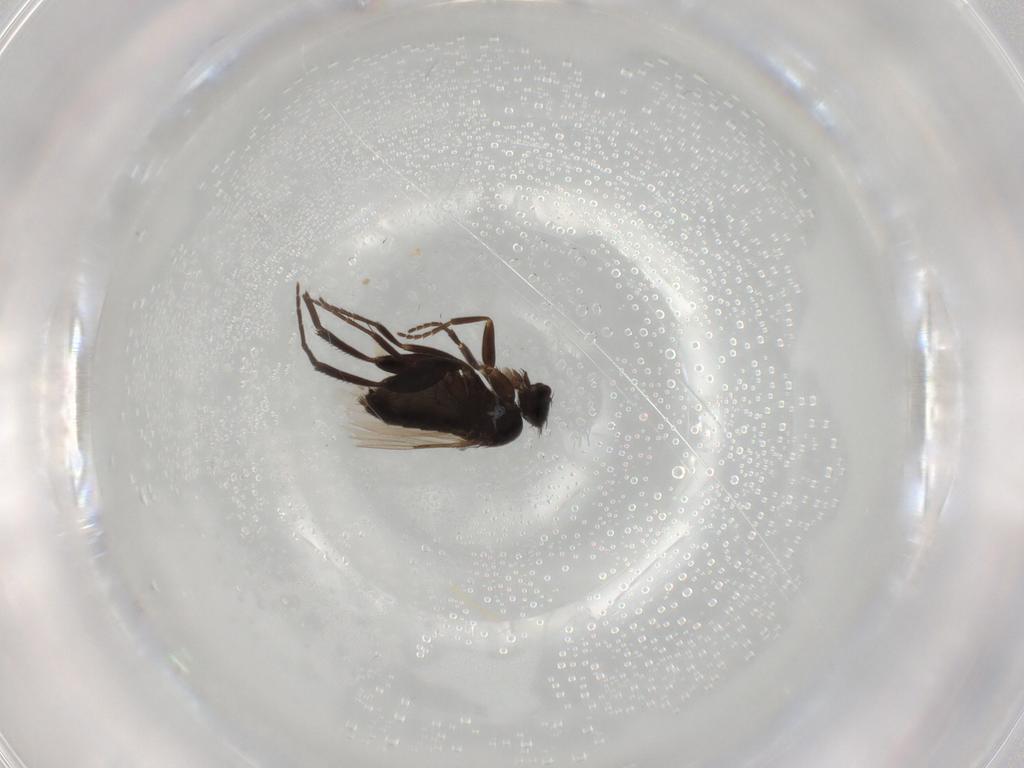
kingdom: Animalia
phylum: Arthropoda
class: Insecta
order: Diptera
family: Muscidae
